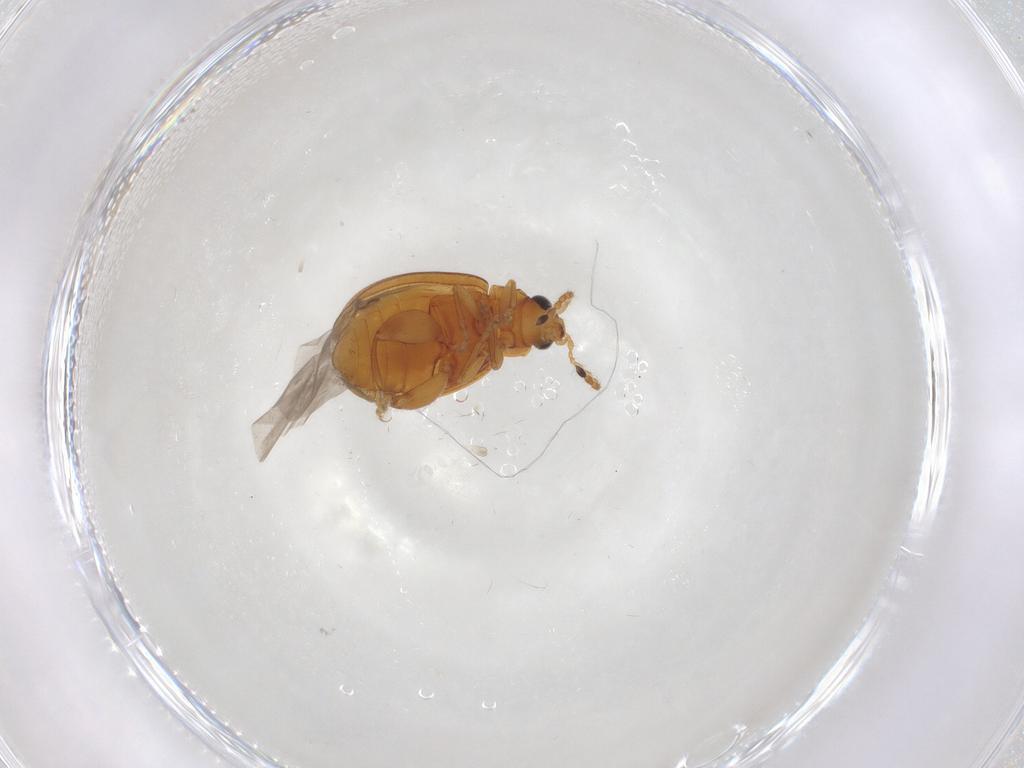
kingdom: Animalia
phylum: Arthropoda
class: Insecta
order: Coleoptera
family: Chrysomelidae
